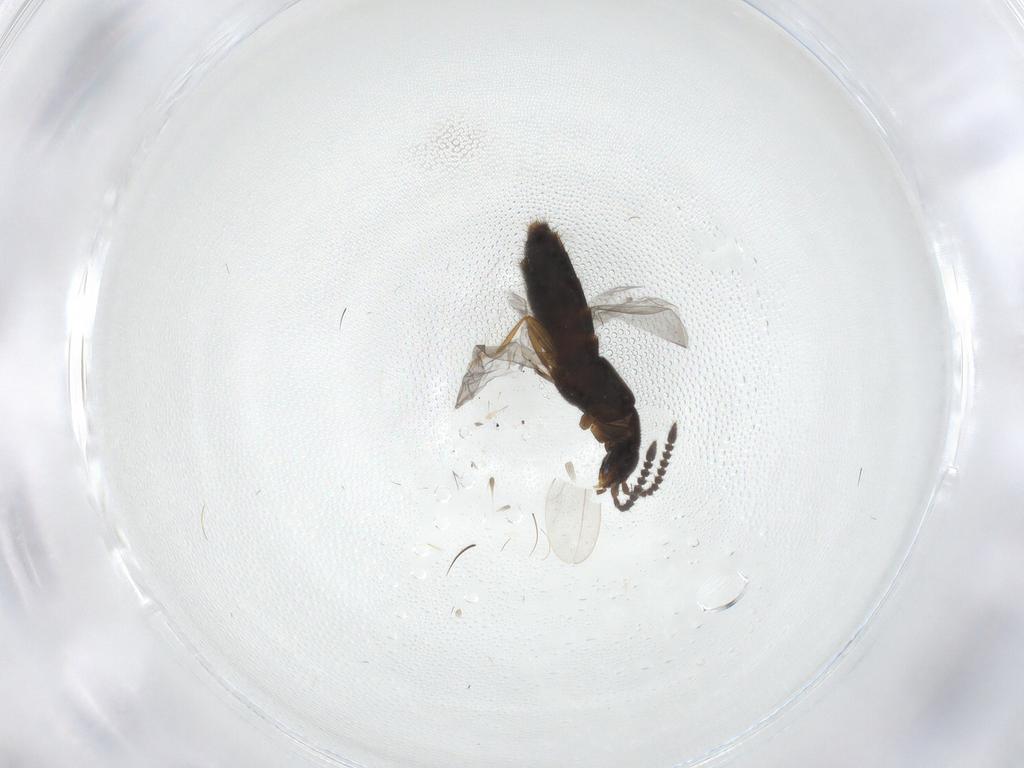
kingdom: Animalia
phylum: Arthropoda
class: Insecta
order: Coleoptera
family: Staphylinidae
